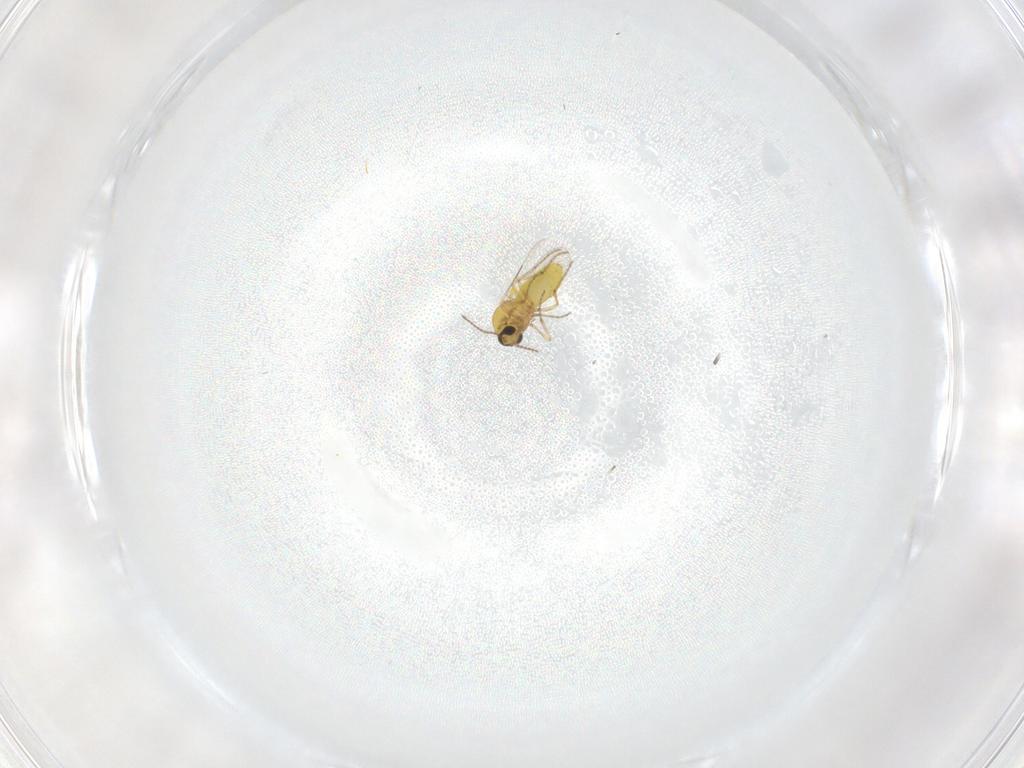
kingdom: Animalia
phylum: Arthropoda
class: Insecta
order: Diptera
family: Ceratopogonidae
